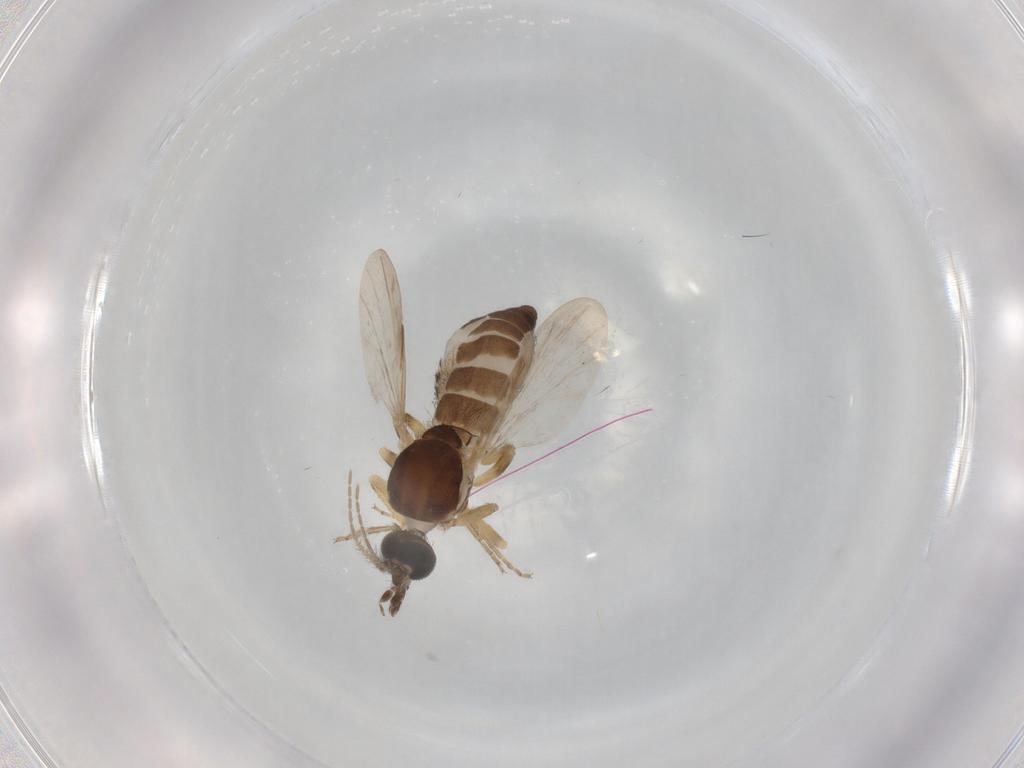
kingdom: Animalia
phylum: Arthropoda
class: Insecta
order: Diptera
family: Ceratopogonidae
